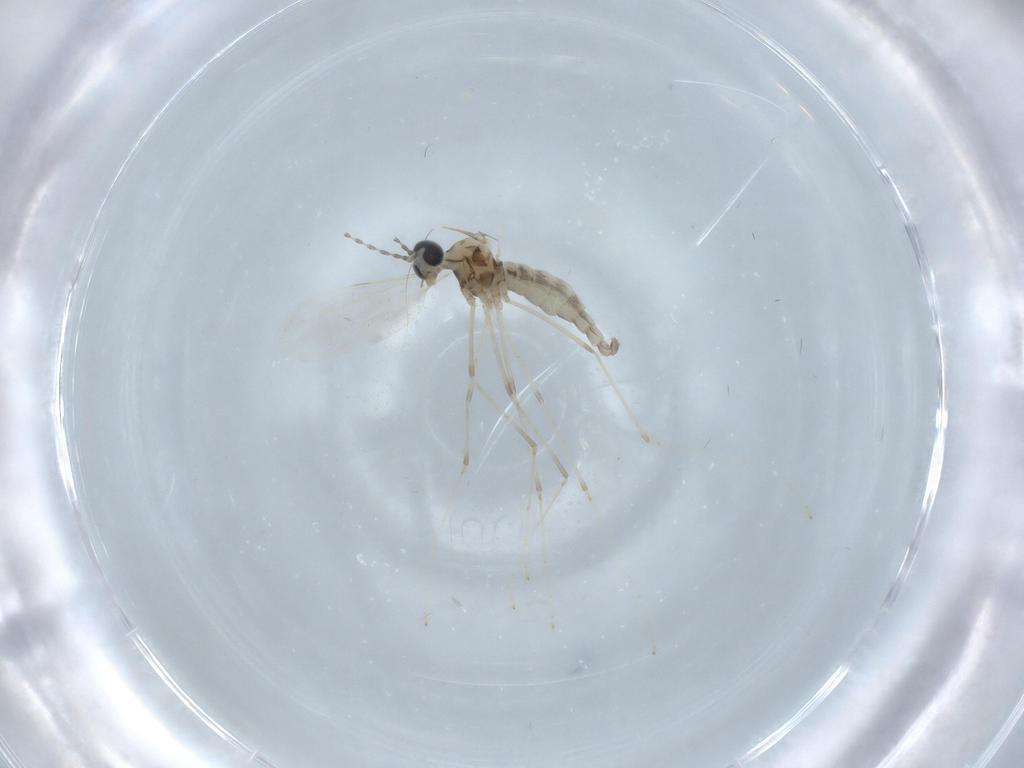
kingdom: Animalia
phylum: Arthropoda
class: Insecta
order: Diptera
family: Cecidomyiidae
